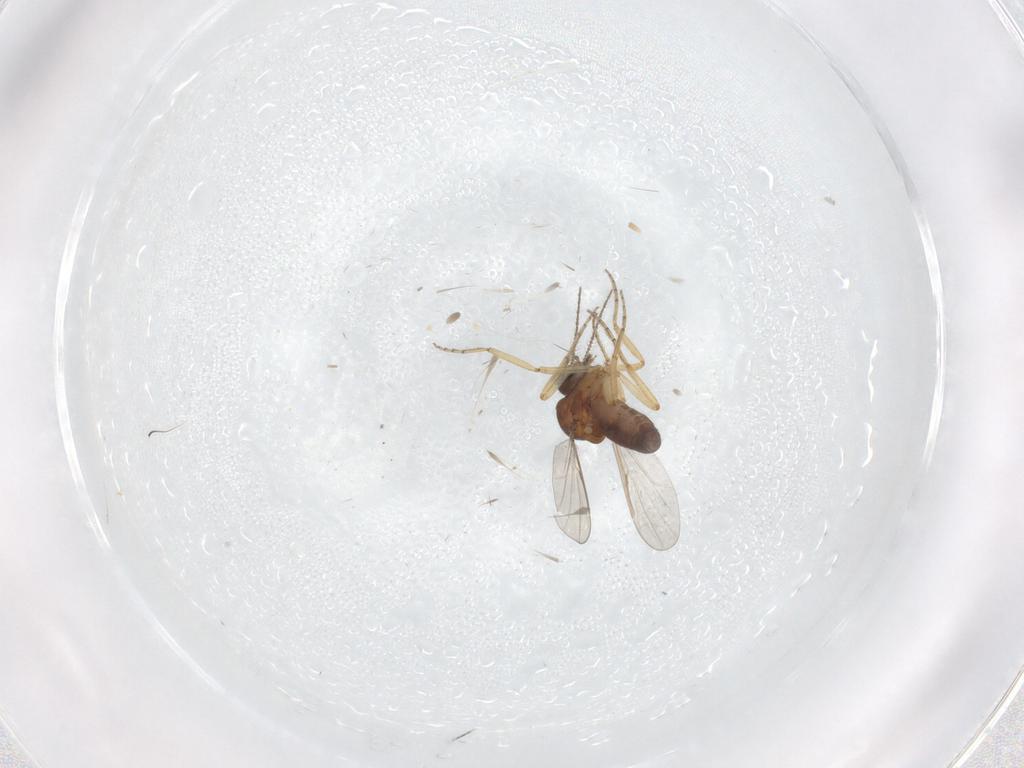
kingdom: Animalia
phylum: Arthropoda
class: Insecta
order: Diptera
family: Ceratopogonidae
